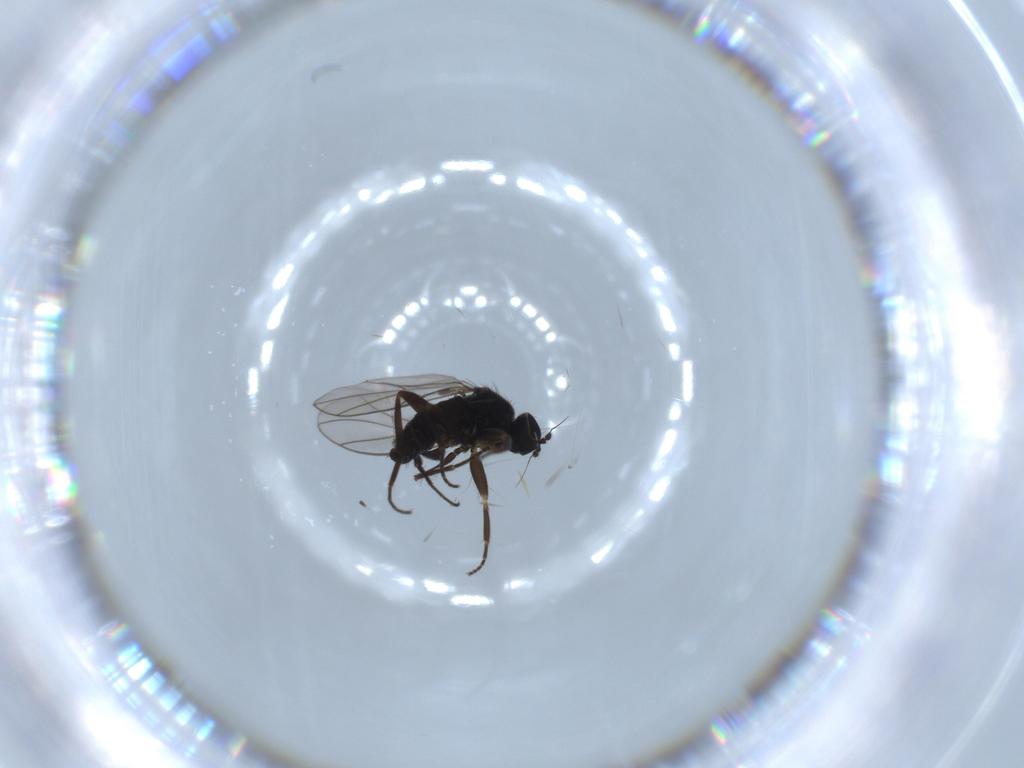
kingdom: Animalia
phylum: Arthropoda
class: Insecta
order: Diptera
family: Hybotidae
